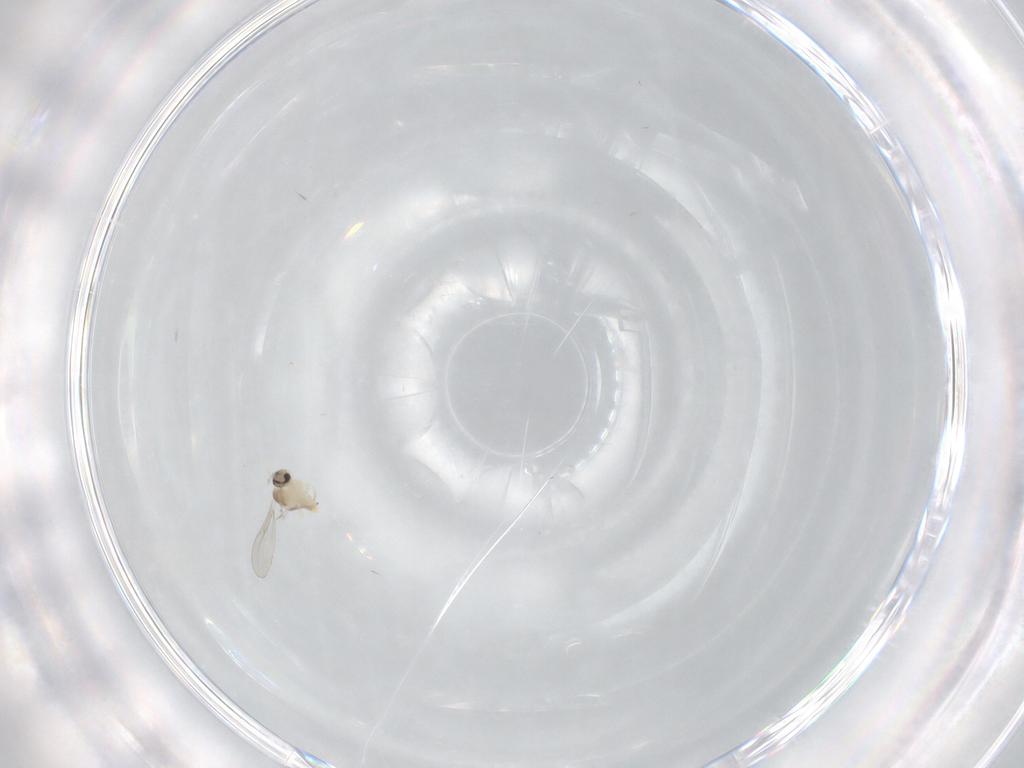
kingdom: Animalia
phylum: Arthropoda
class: Insecta
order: Diptera
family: Cecidomyiidae
